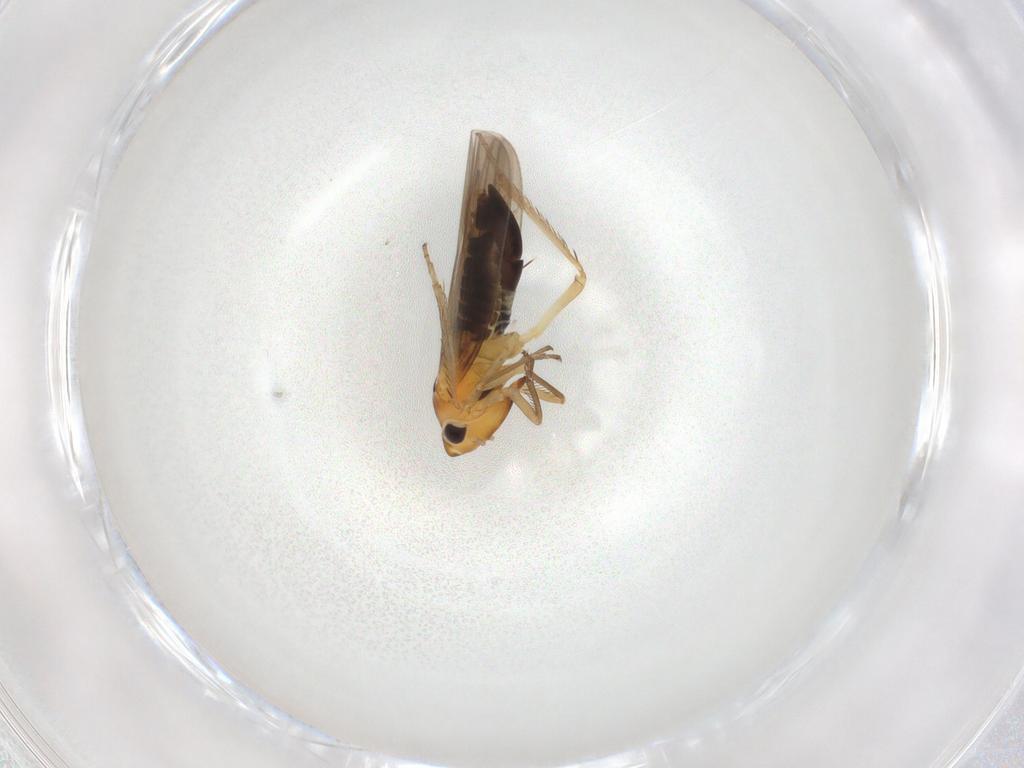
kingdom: Animalia
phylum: Arthropoda
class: Insecta
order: Hemiptera
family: Cicadellidae
